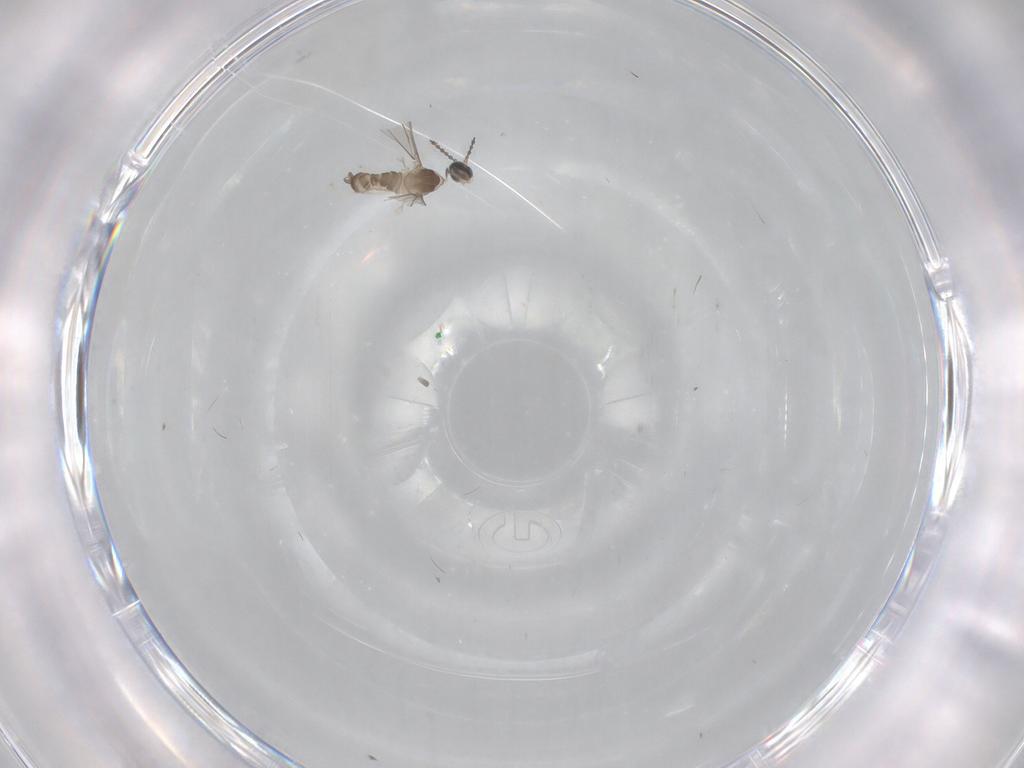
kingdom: Animalia
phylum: Arthropoda
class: Insecta
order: Diptera
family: Cecidomyiidae
